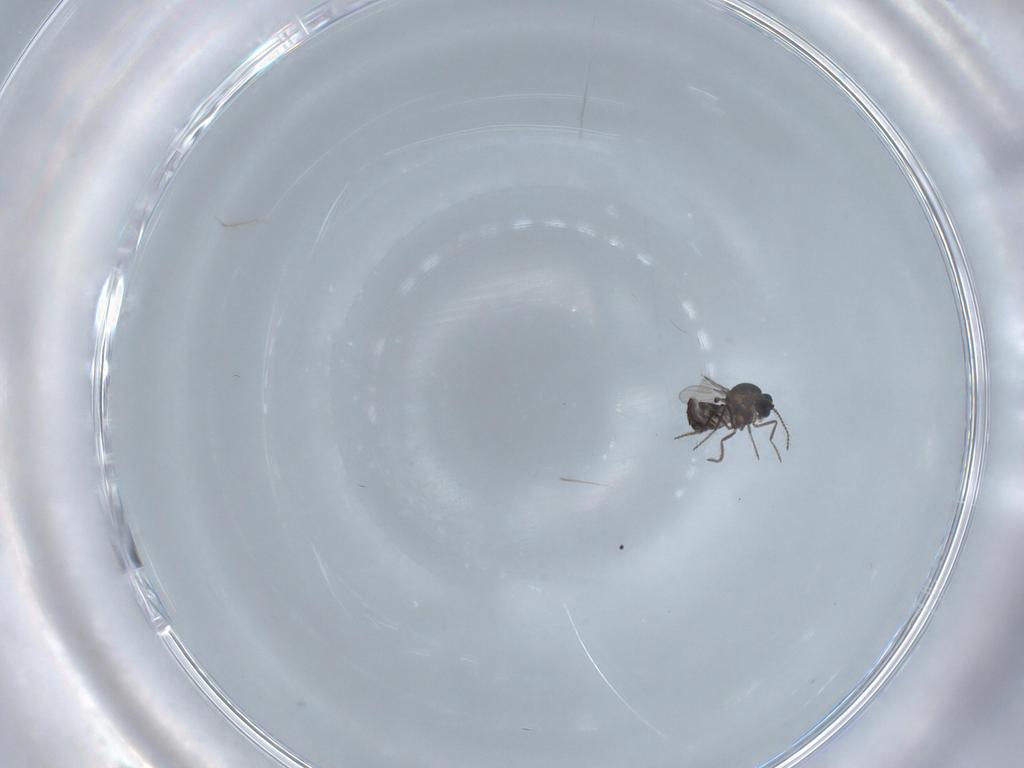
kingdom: Animalia
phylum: Arthropoda
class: Insecta
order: Diptera
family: Ceratopogonidae
